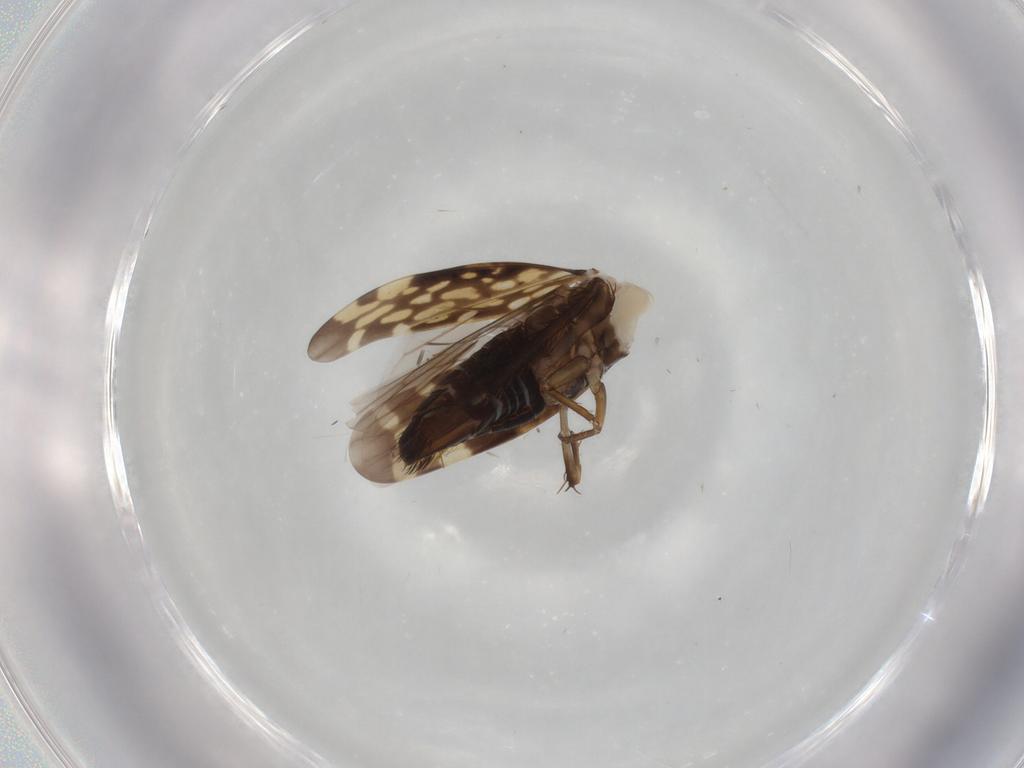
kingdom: Animalia
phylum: Arthropoda
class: Insecta
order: Hemiptera
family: Cicadellidae
